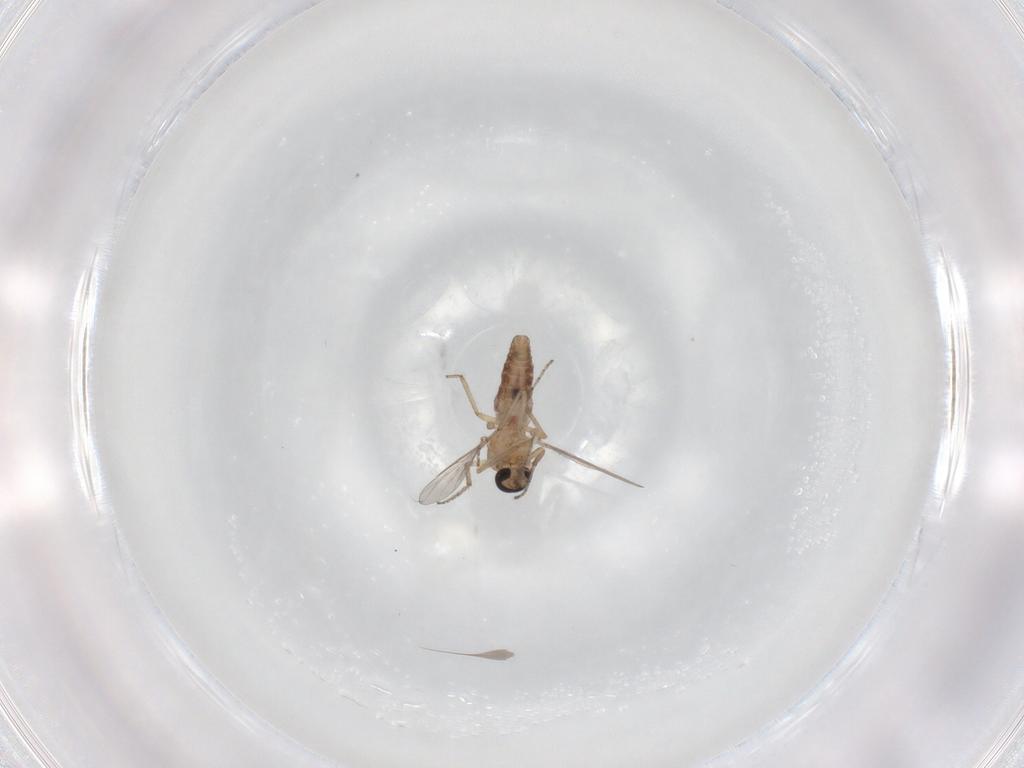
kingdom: Animalia
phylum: Arthropoda
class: Insecta
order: Diptera
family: Ceratopogonidae
